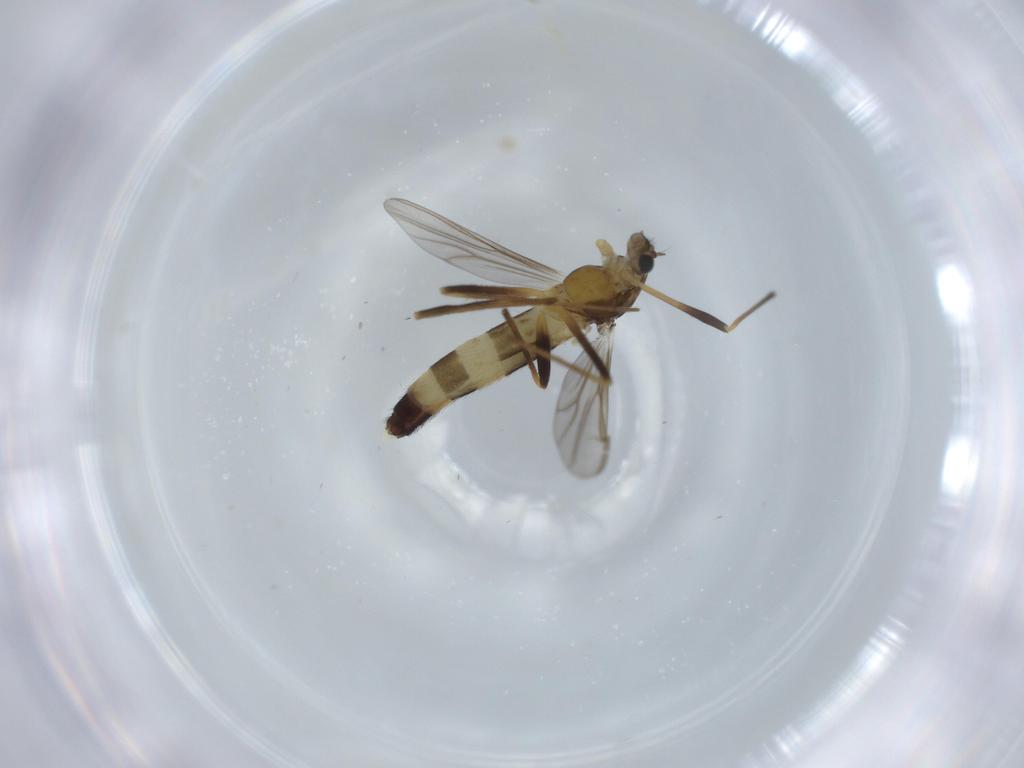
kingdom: Animalia
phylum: Arthropoda
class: Insecta
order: Diptera
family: Chironomidae
